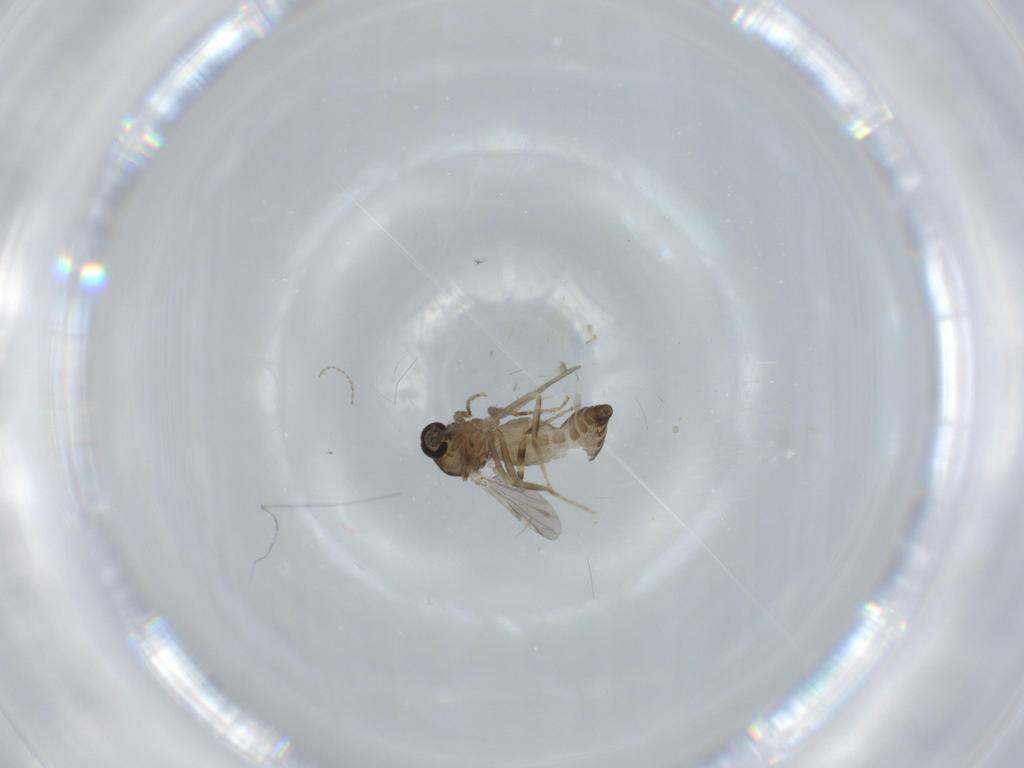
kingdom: Animalia
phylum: Arthropoda
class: Insecta
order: Diptera
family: Ceratopogonidae
